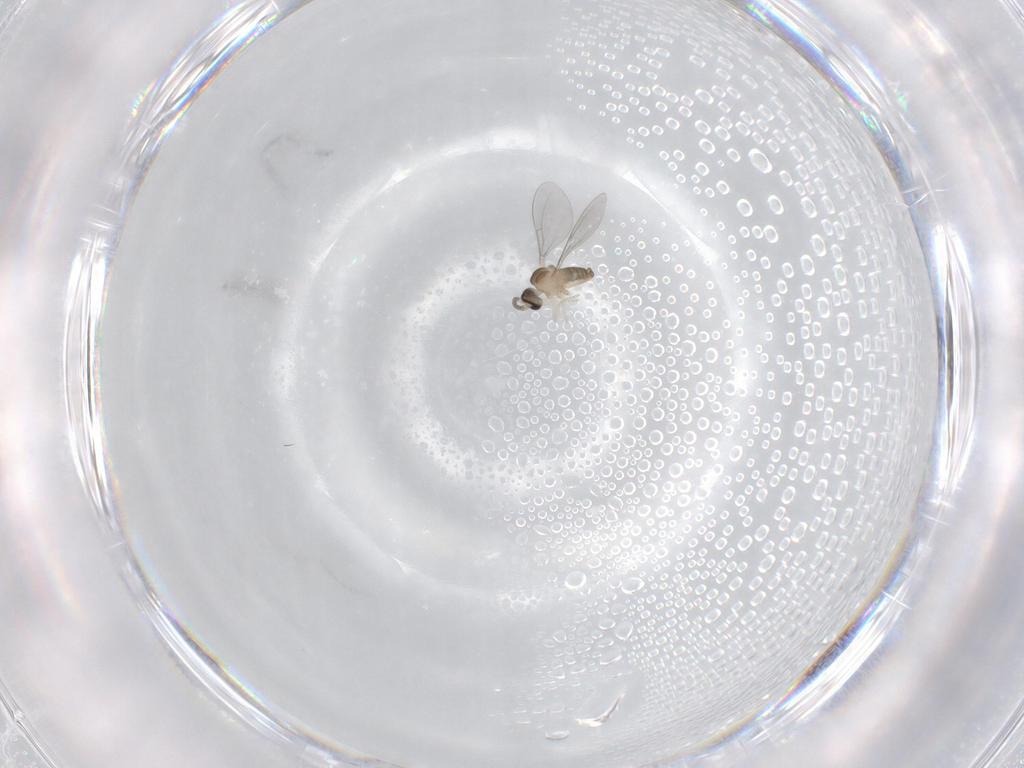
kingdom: Animalia
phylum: Arthropoda
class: Insecta
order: Diptera
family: Cecidomyiidae
